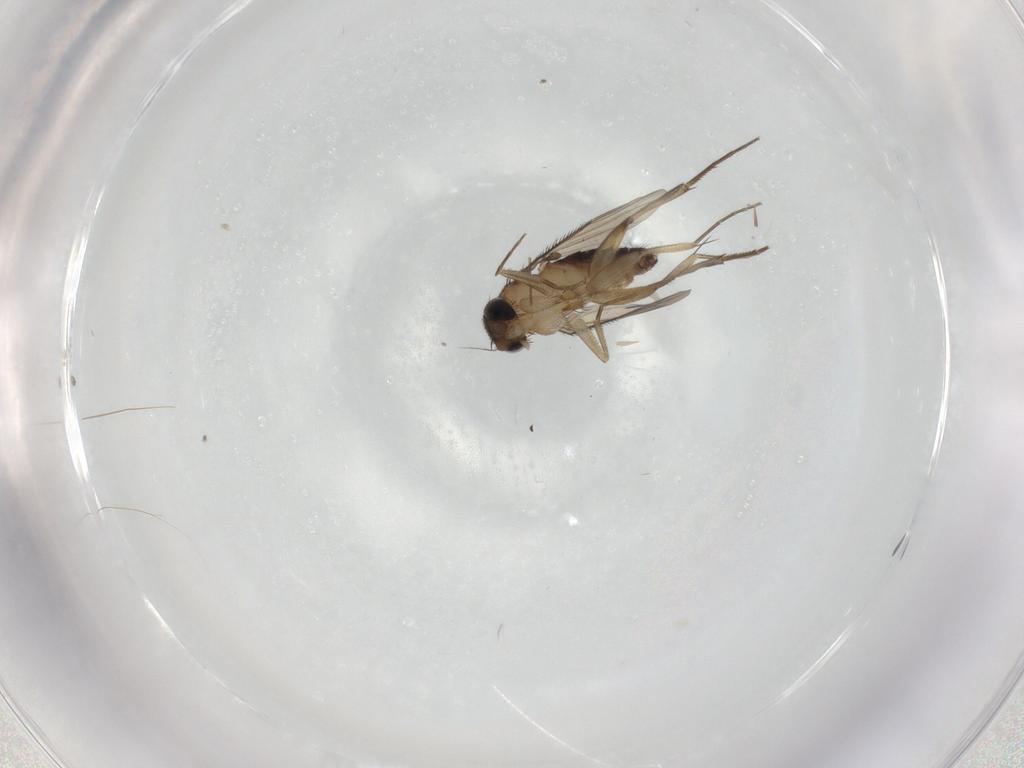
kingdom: Animalia
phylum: Arthropoda
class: Insecta
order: Diptera
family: Phoridae
